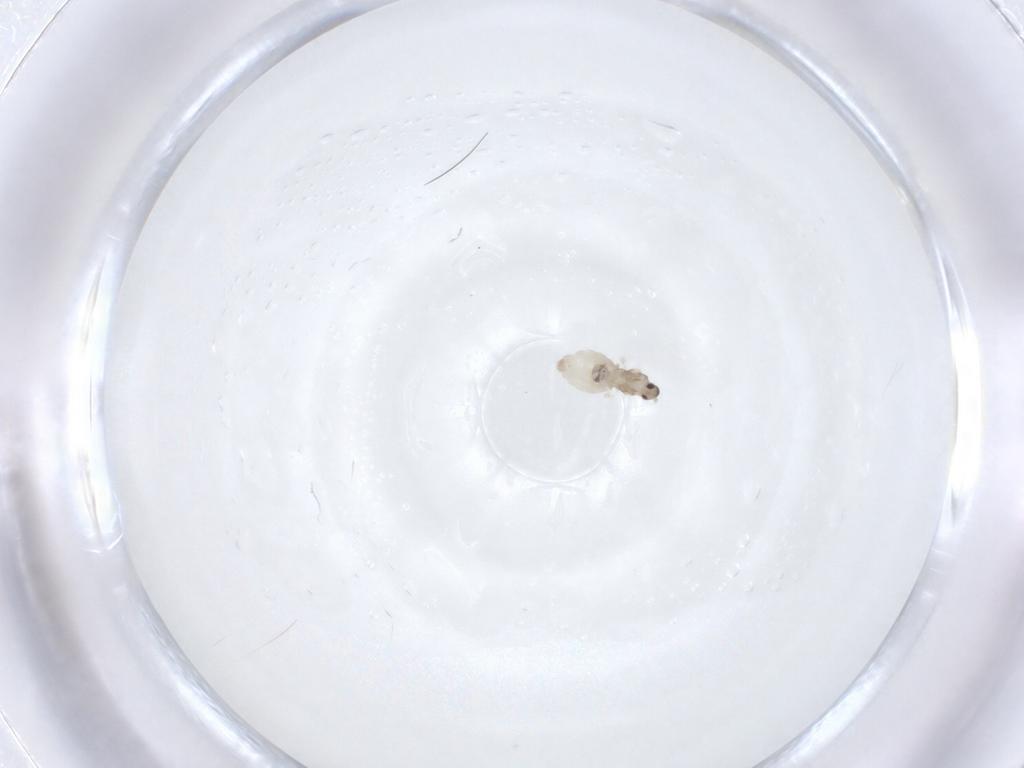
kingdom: Animalia
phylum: Arthropoda
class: Insecta
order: Diptera
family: Cecidomyiidae
